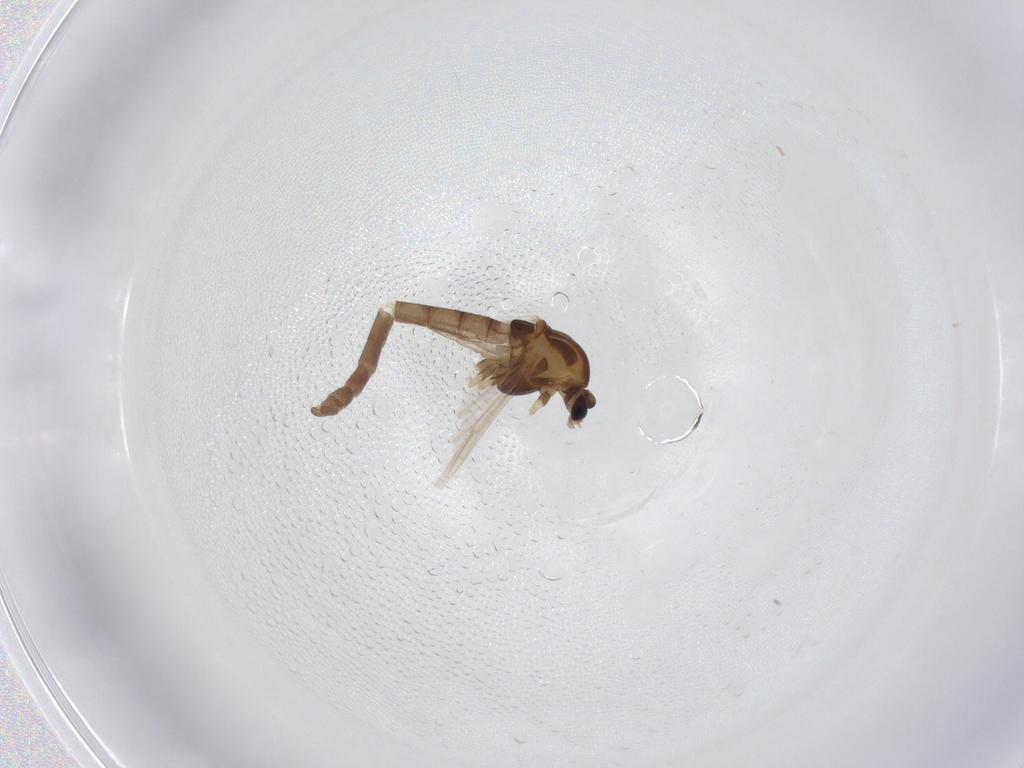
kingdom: Animalia
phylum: Arthropoda
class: Insecta
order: Diptera
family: Chironomidae
